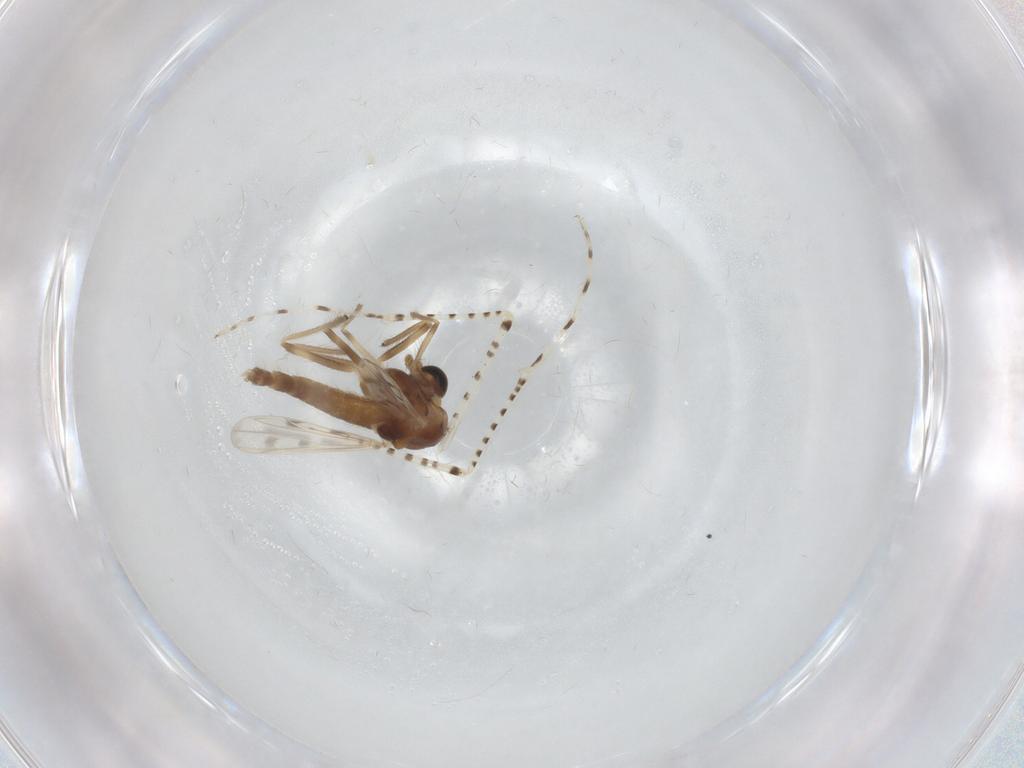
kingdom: Animalia
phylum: Arthropoda
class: Insecta
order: Diptera
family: Chironomidae
